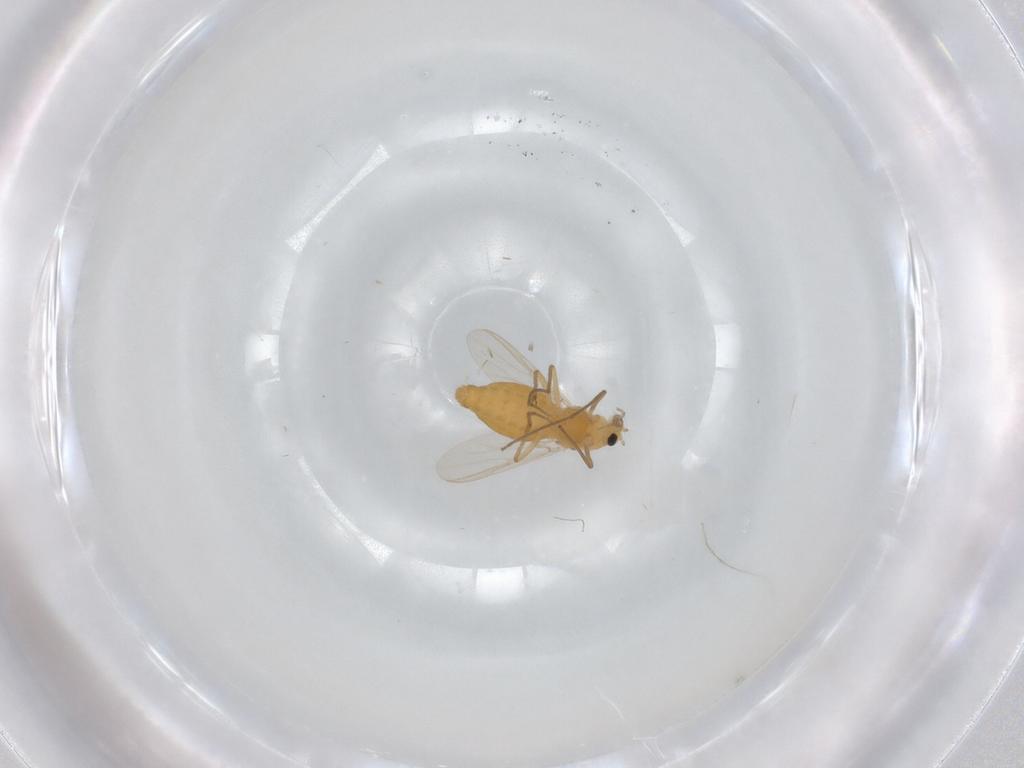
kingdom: Animalia
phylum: Arthropoda
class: Insecta
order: Diptera
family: Chironomidae
